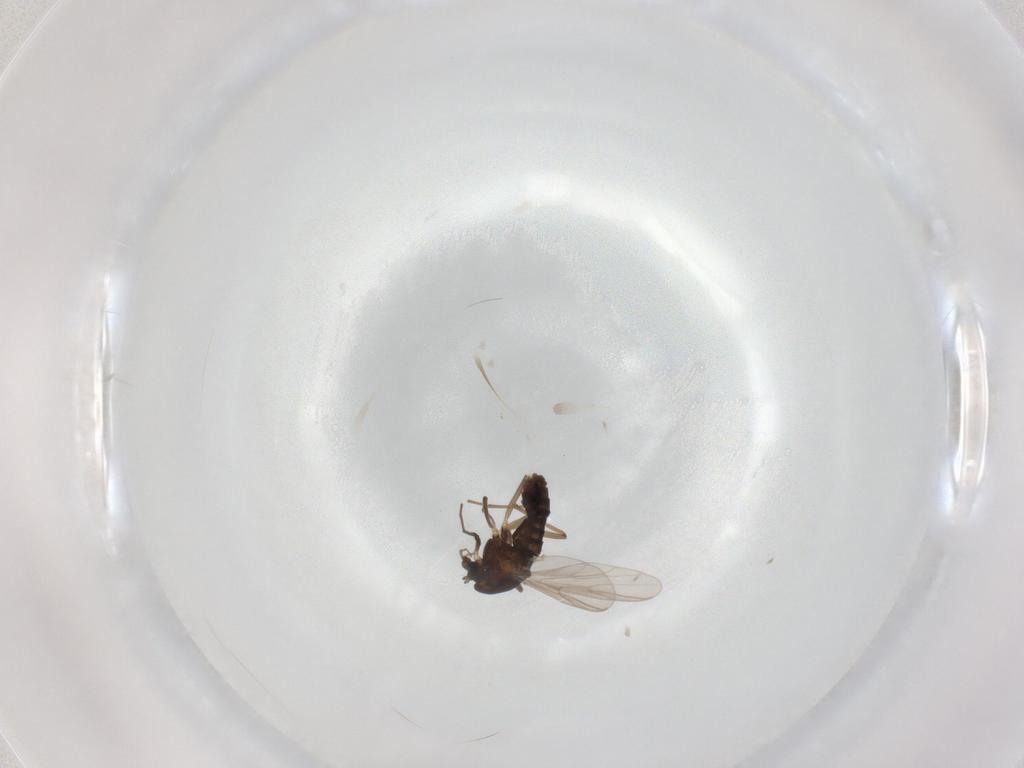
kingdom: Animalia
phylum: Arthropoda
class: Insecta
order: Diptera
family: Chironomidae
